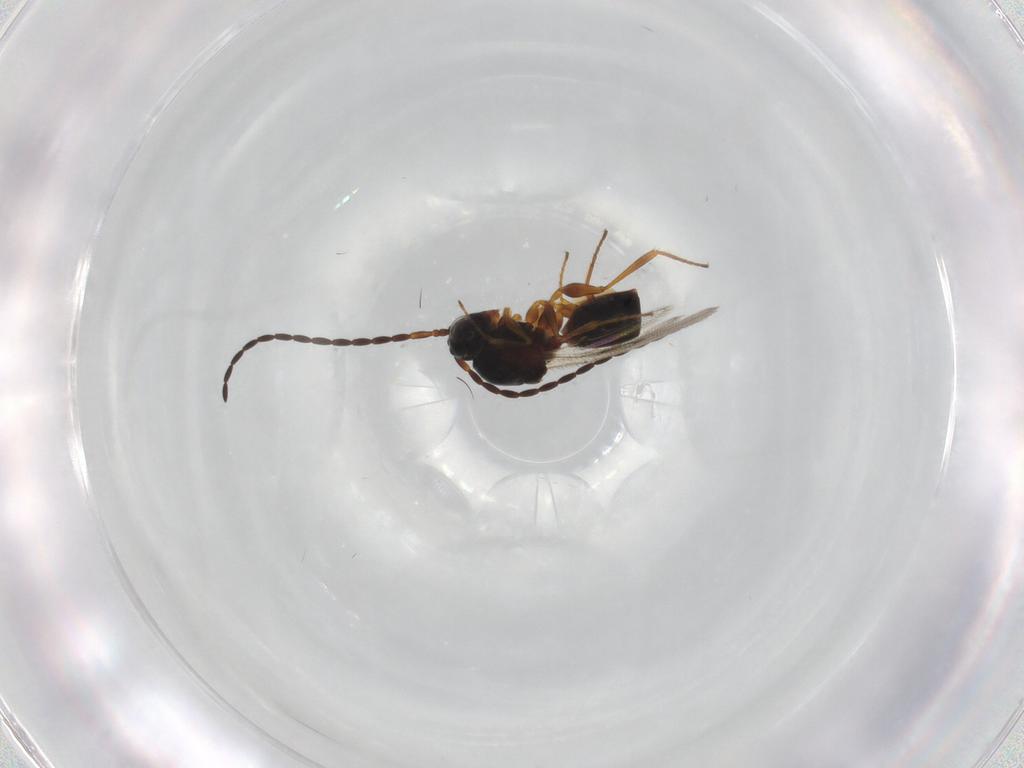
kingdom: Animalia
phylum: Arthropoda
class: Insecta
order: Hymenoptera
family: Figitidae
